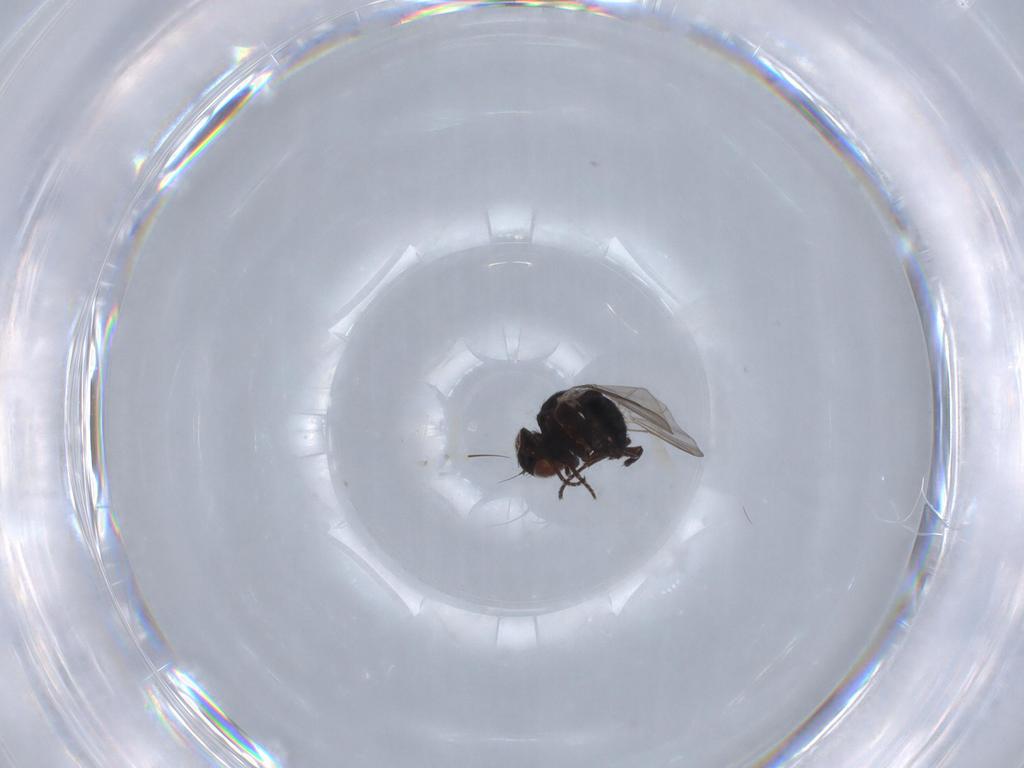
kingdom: Animalia
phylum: Arthropoda
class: Insecta
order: Diptera
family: Agromyzidae
